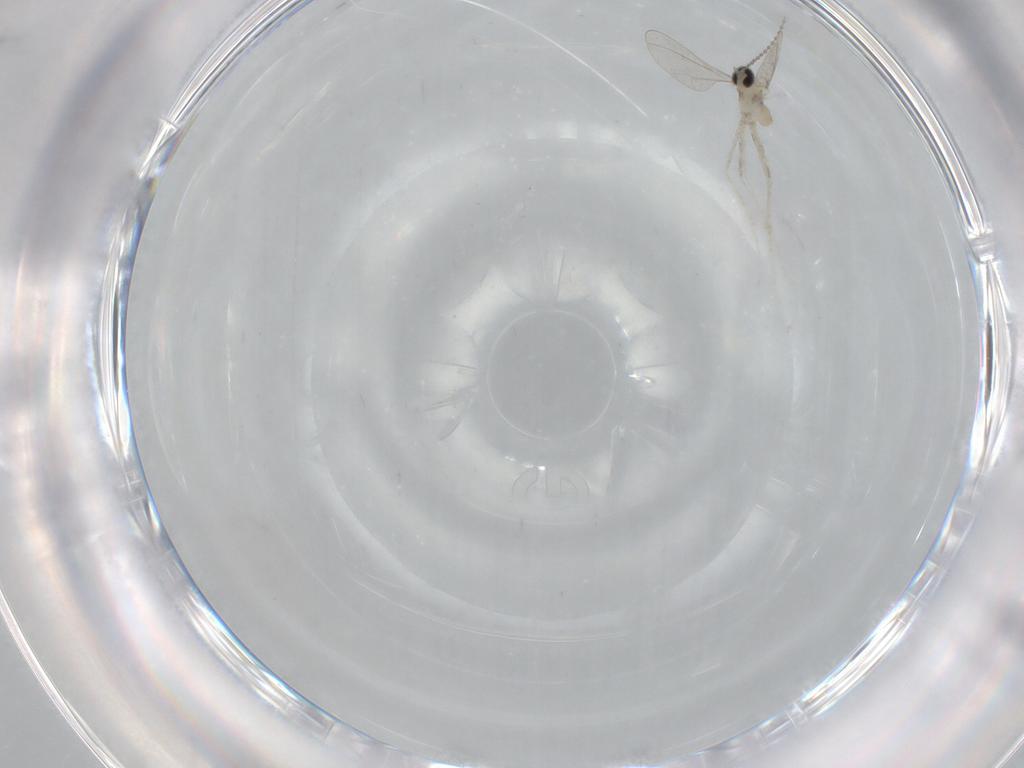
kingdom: Animalia
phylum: Arthropoda
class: Insecta
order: Diptera
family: Cecidomyiidae
